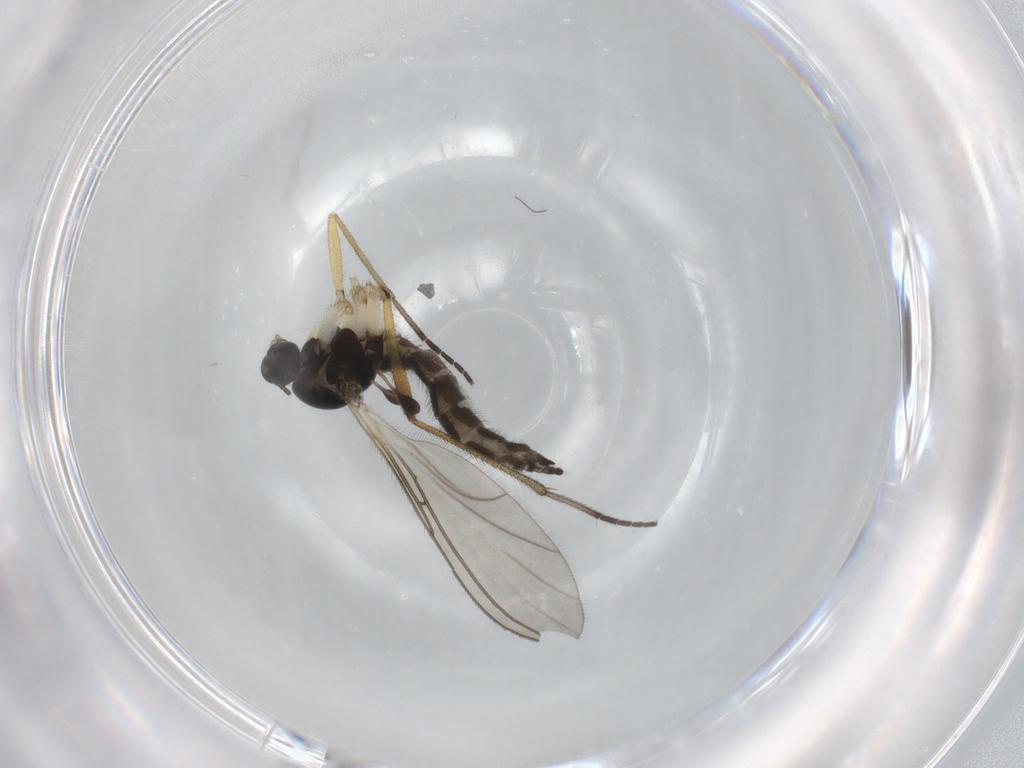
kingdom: Animalia
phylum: Arthropoda
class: Insecta
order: Diptera
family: Sciaridae
